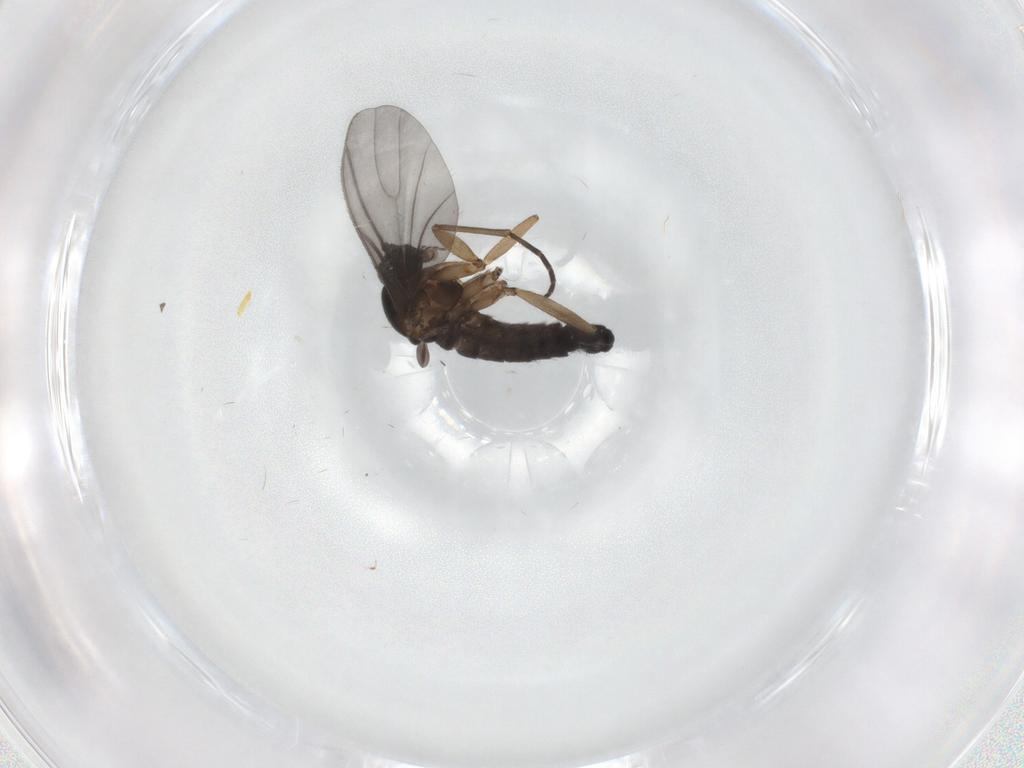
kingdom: Animalia
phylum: Arthropoda
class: Insecta
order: Diptera
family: Sciaridae
